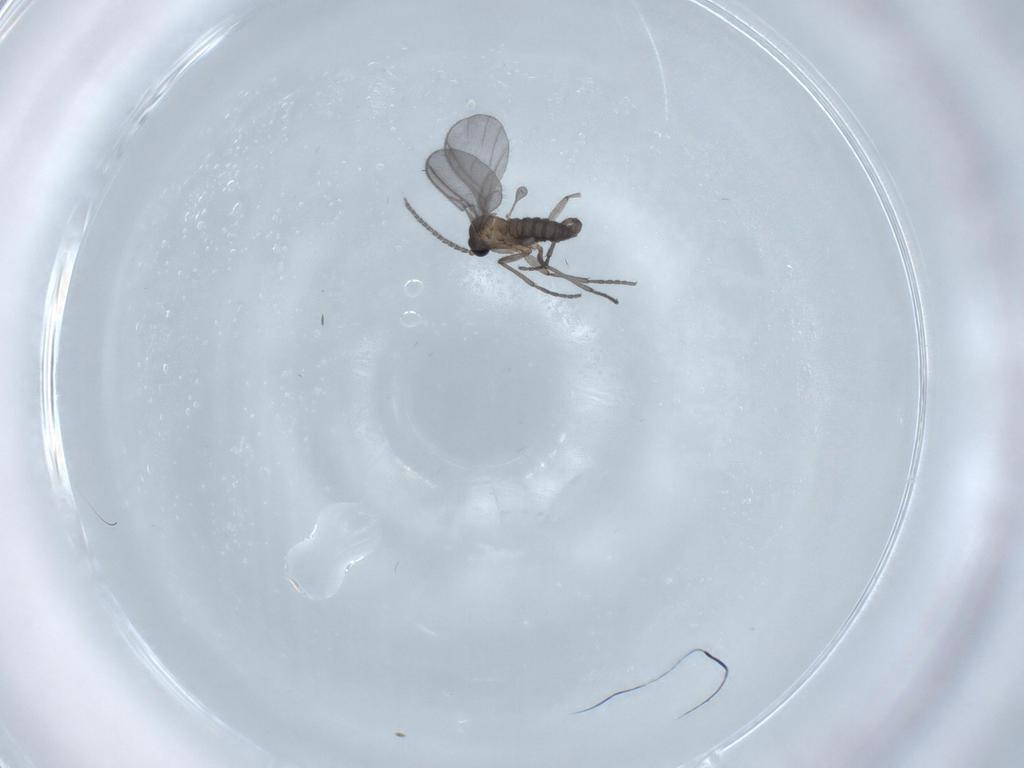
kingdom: Animalia
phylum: Arthropoda
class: Insecta
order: Diptera
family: Sciaridae
